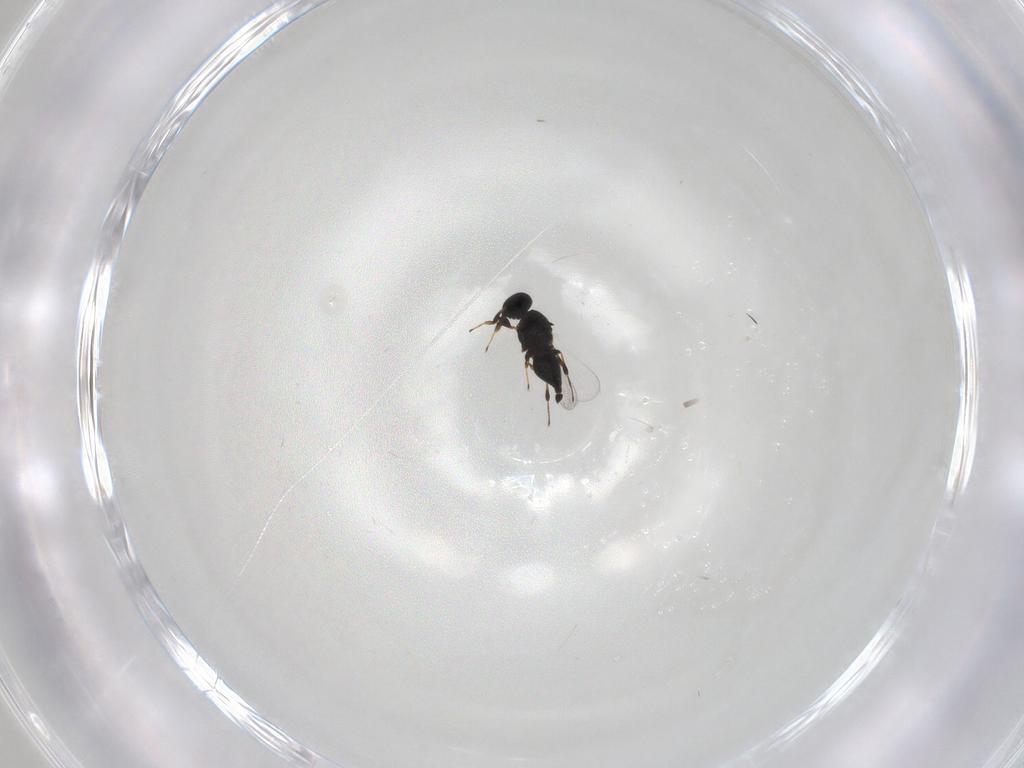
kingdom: Animalia
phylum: Arthropoda
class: Insecta
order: Hymenoptera
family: Platygastridae
